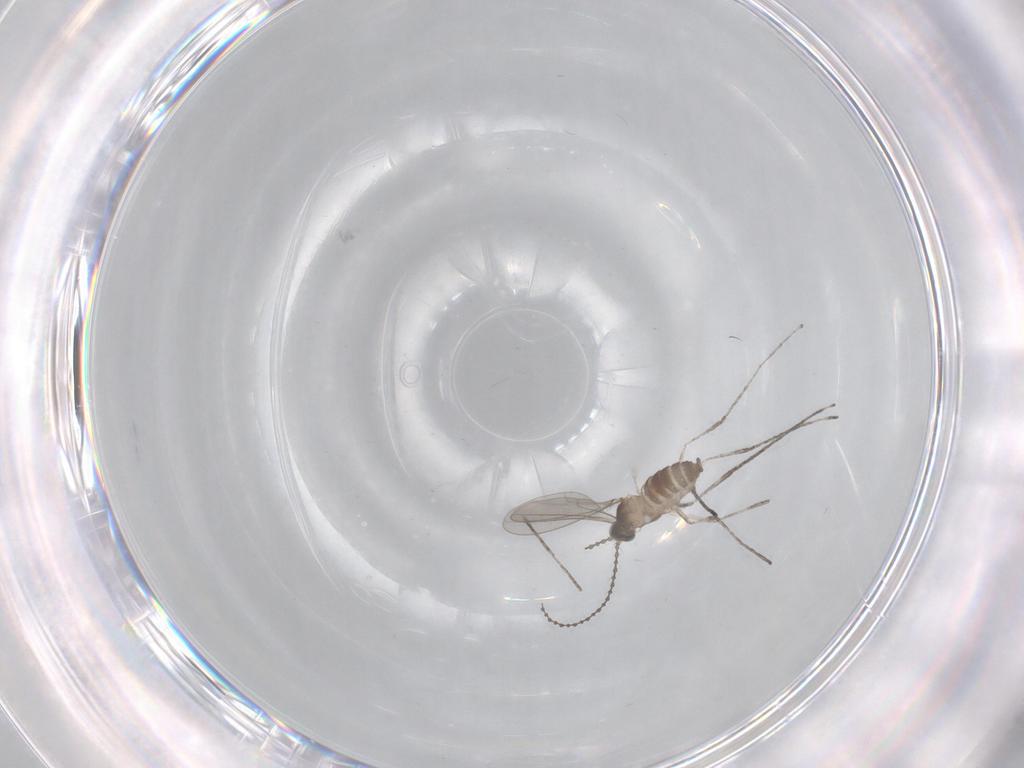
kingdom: Animalia
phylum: Arthropoda
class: Insecta
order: Diptera
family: Cecidomyiidae
